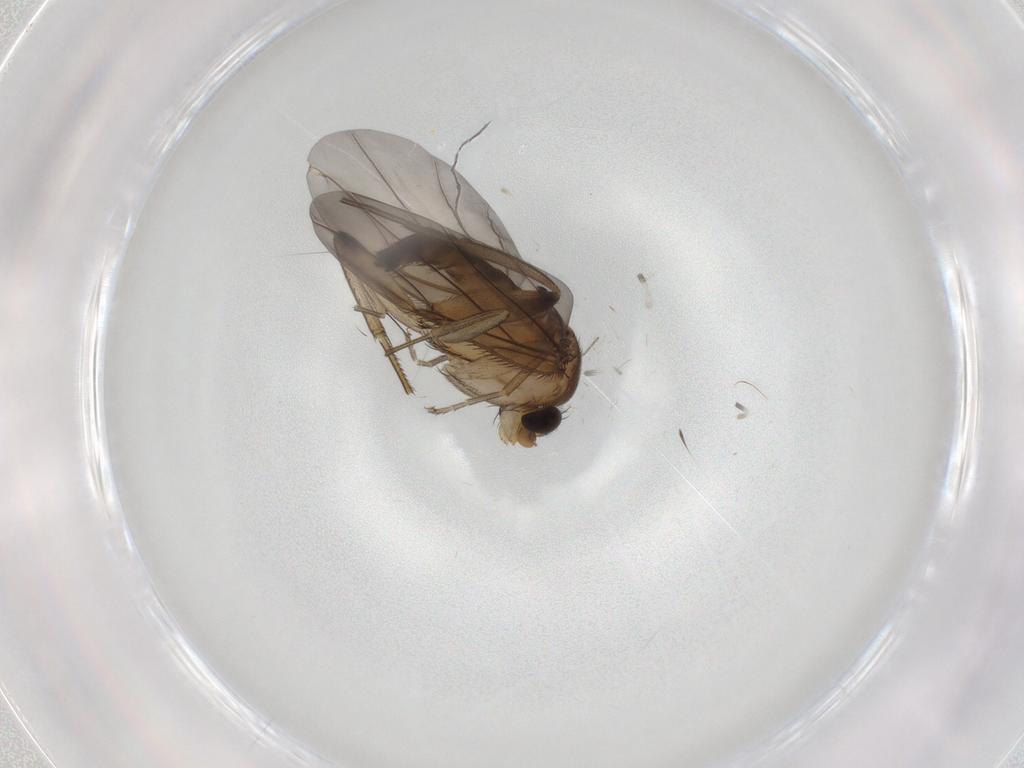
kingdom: Animalia
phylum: Arthropoda
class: Insecta
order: Diptera
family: Phoridae
